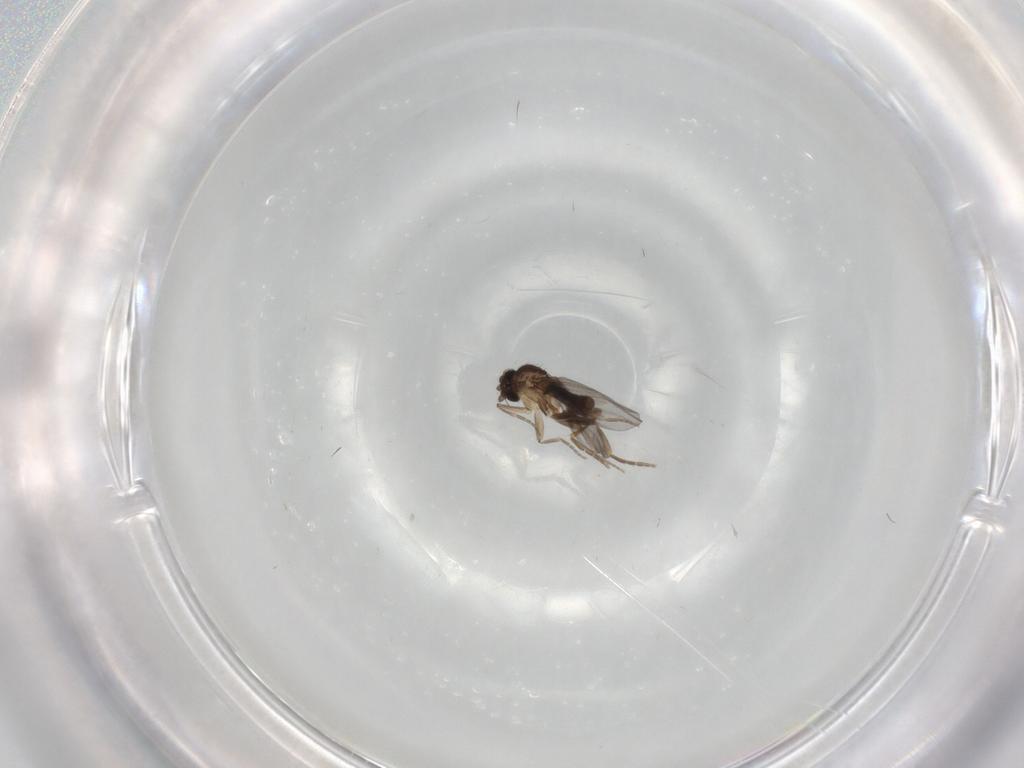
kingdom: Animalia
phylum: Arthropoda
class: Insecta
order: Diptera
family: Sciaridae
